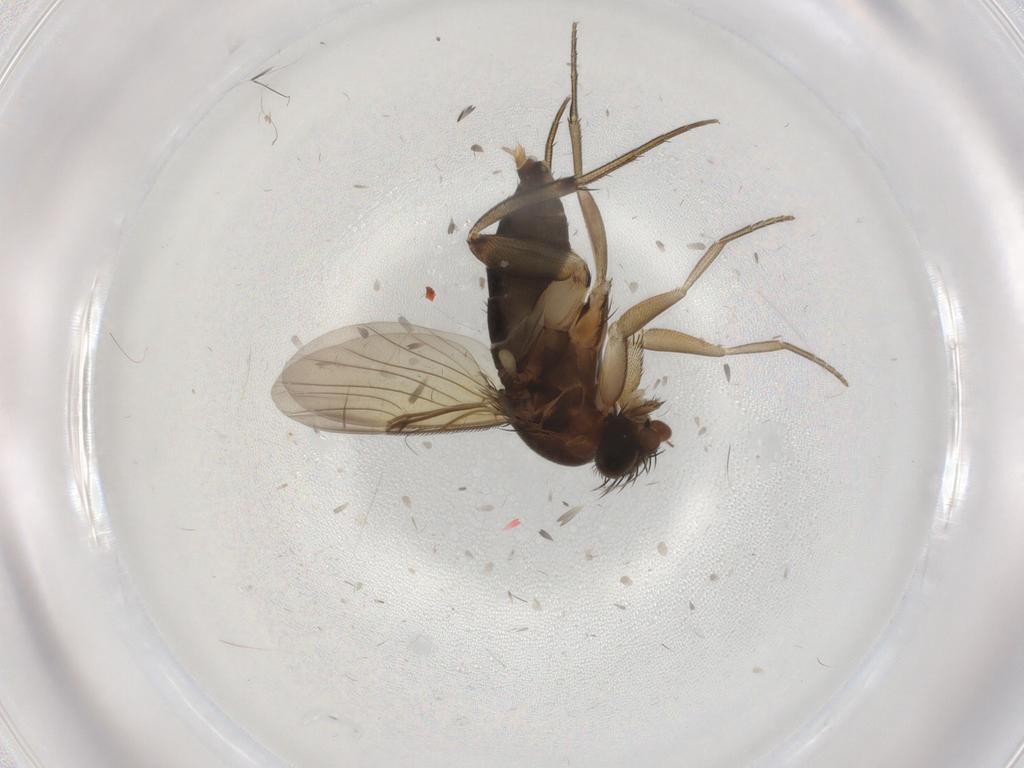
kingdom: Animalia
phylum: Arthropoda
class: Insecta
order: Diptera
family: Phoridae
